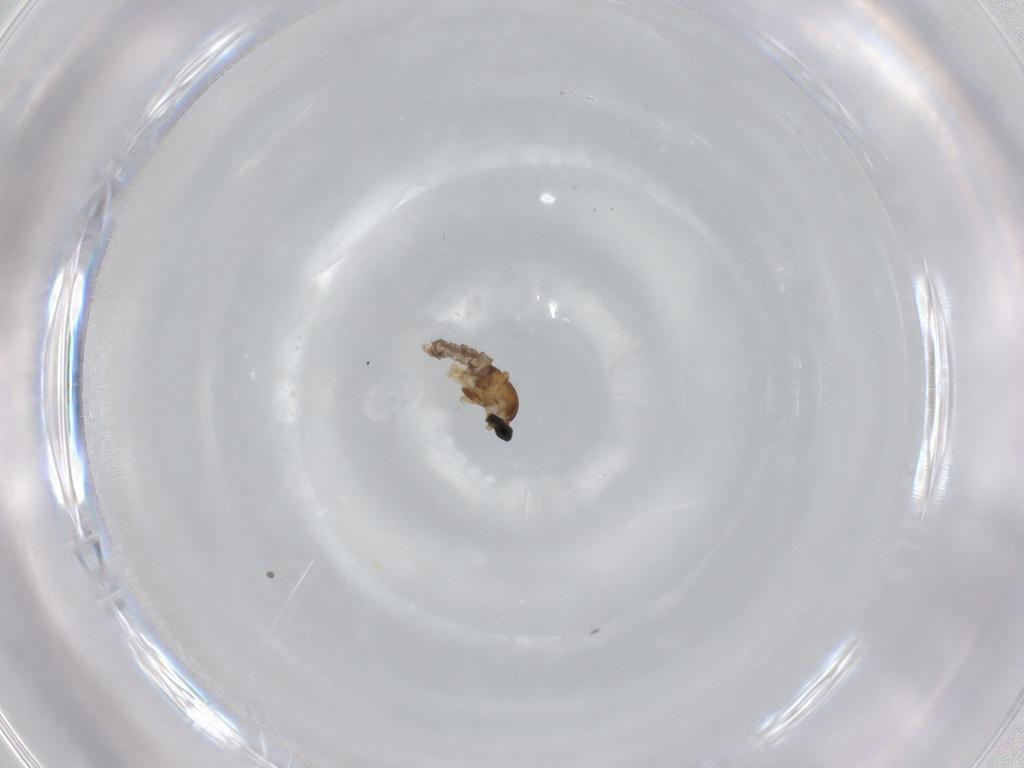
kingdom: Animalia
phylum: Arthropoda
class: Insecta
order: Diptera
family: Cecidomyiidae
